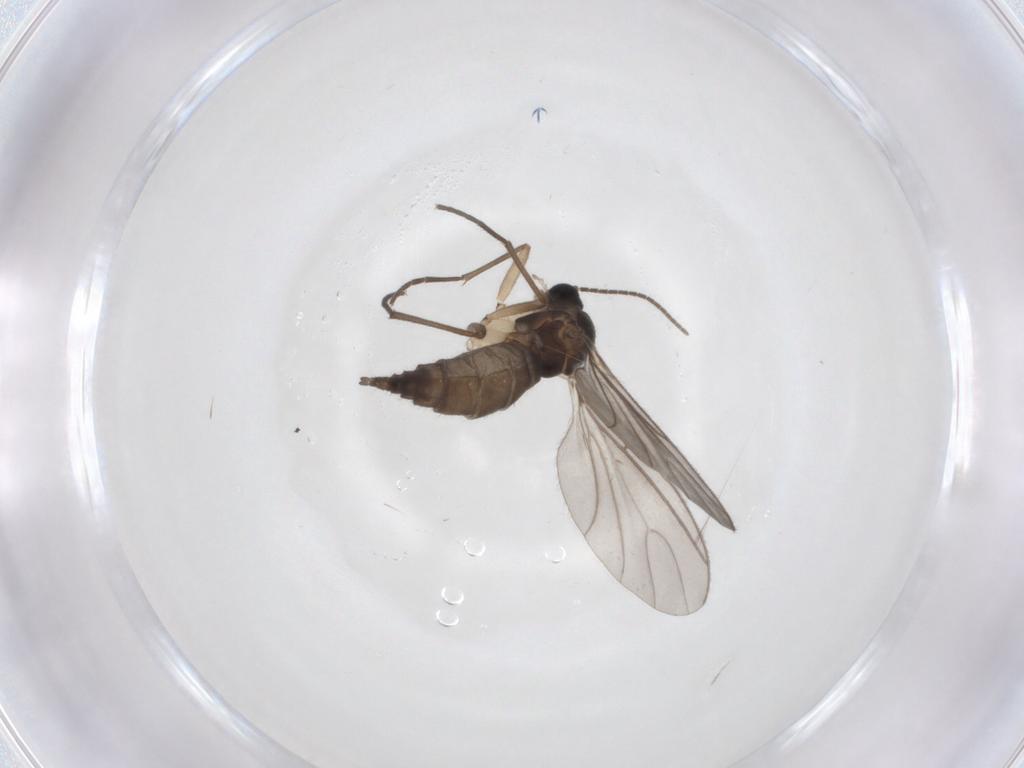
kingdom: Animalia
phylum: Arthropoda
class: Insecta
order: Diptera
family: Sciaridae
